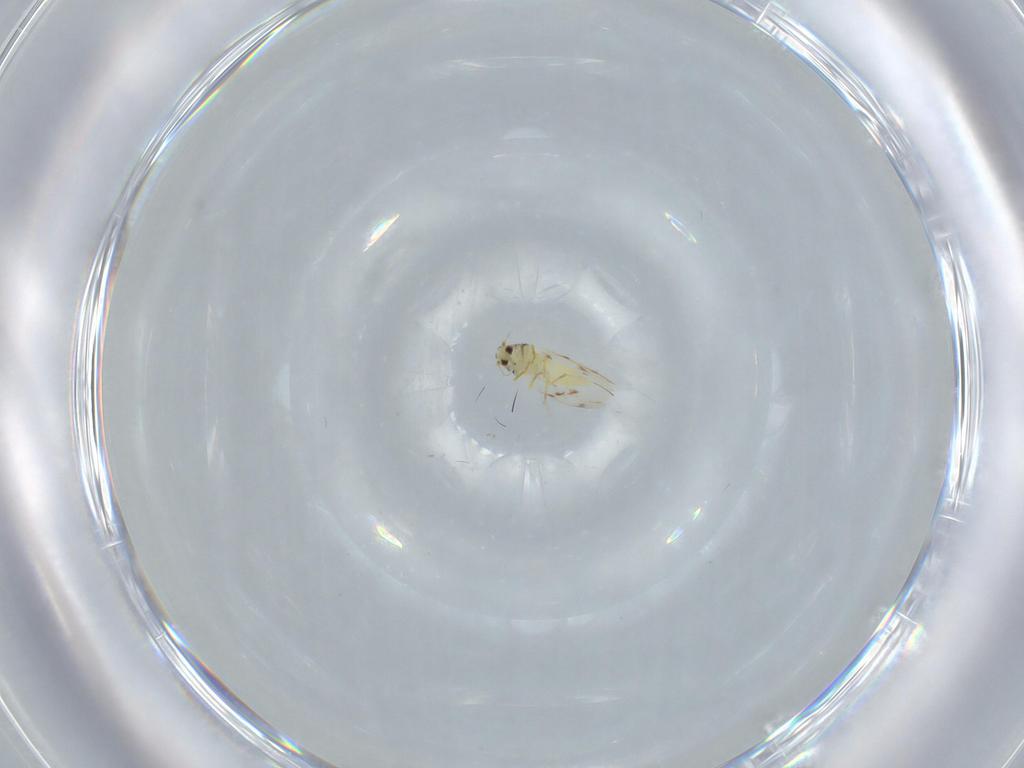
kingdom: Animalia
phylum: Arthropoda
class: Insecta
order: Hemiptera
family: Aleyrodidae
